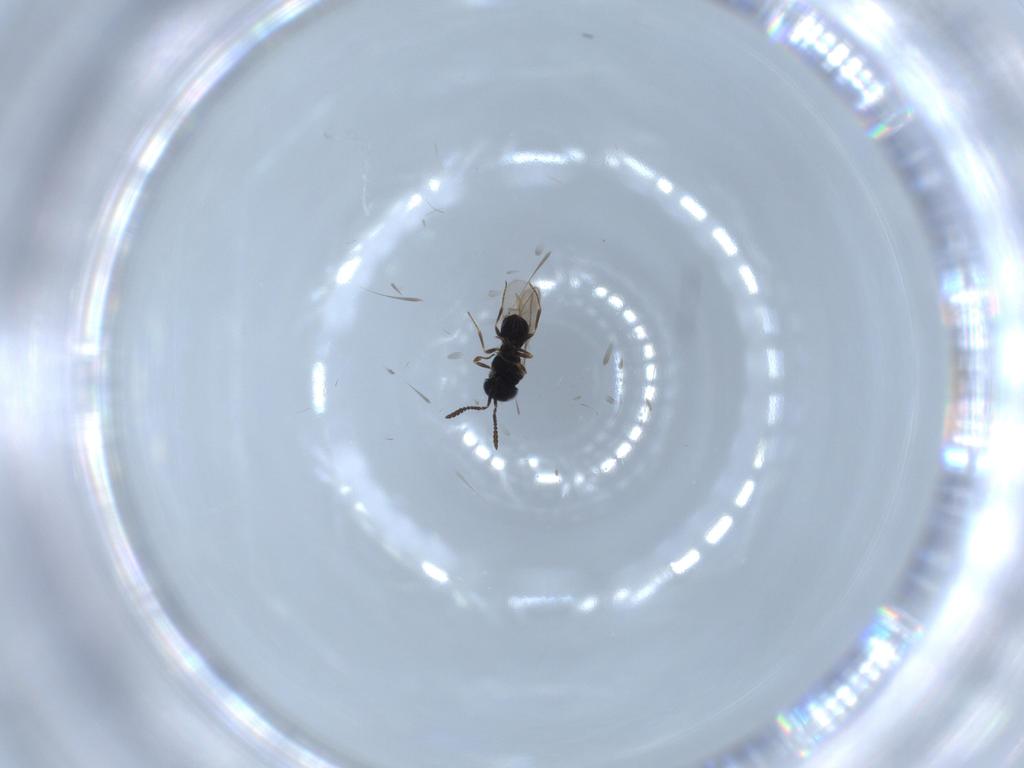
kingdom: Animalia
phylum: Arthropoda
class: Insecta
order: Hymenoptera
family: Scelionidae
